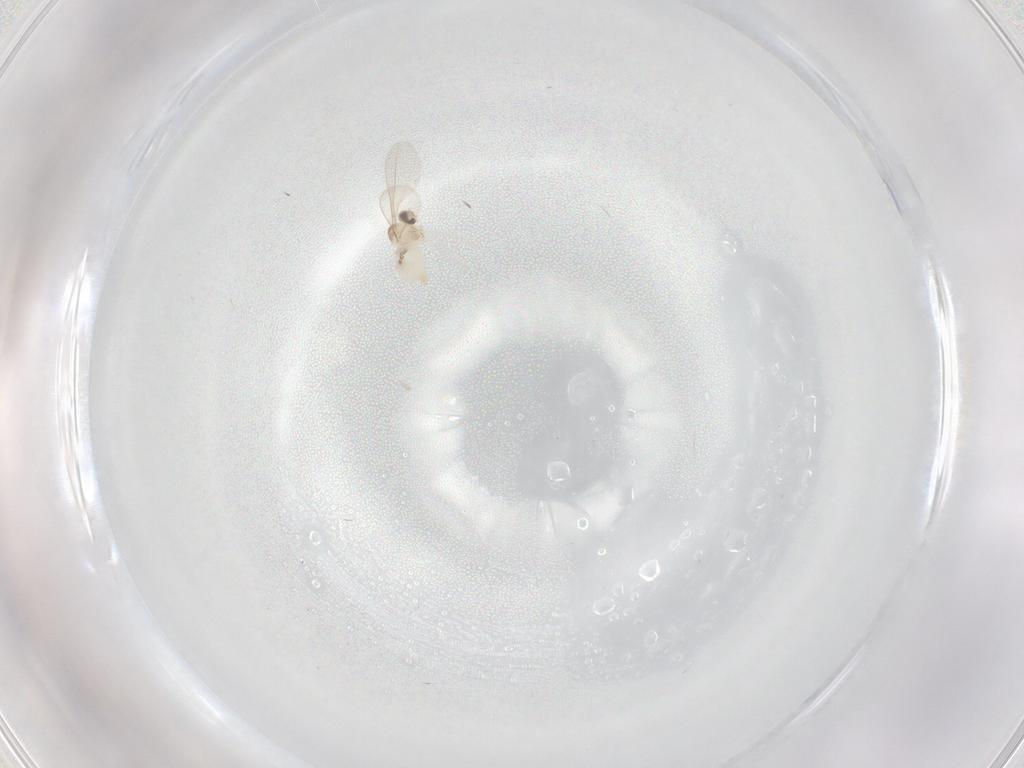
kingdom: Animalia
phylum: Arthropoda
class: Insecta
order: Diptera
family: Cecidomyiidae
